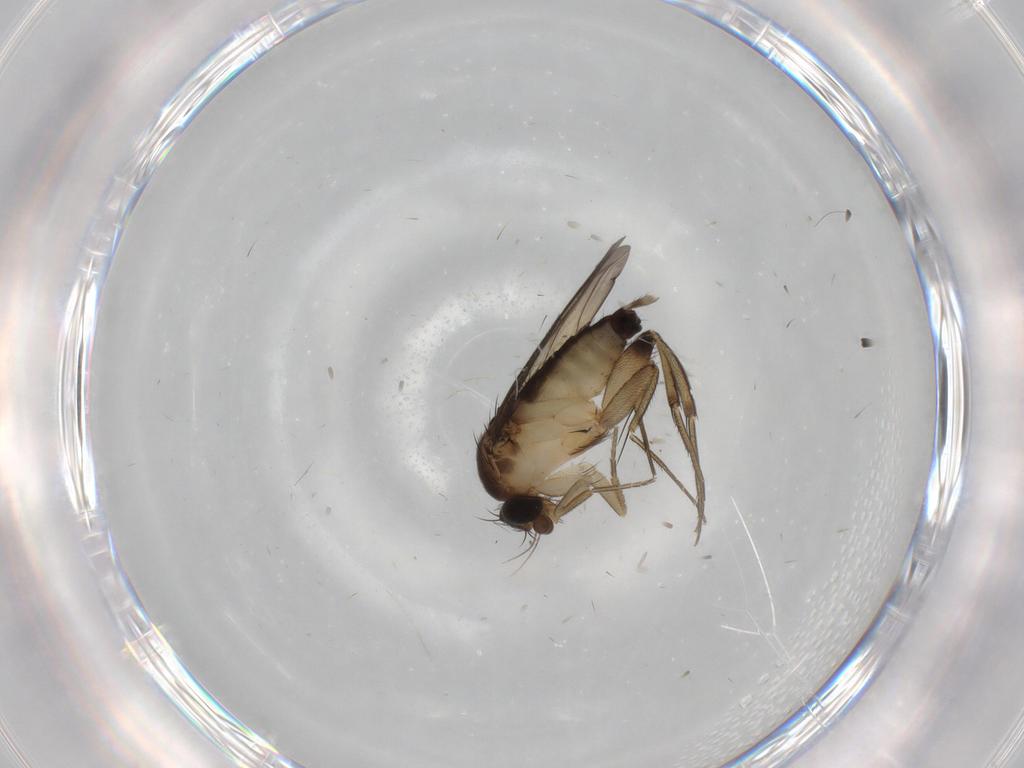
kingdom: Animalia
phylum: Arthropoda
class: Insecta
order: Diptera
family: Cecidomyiidae
